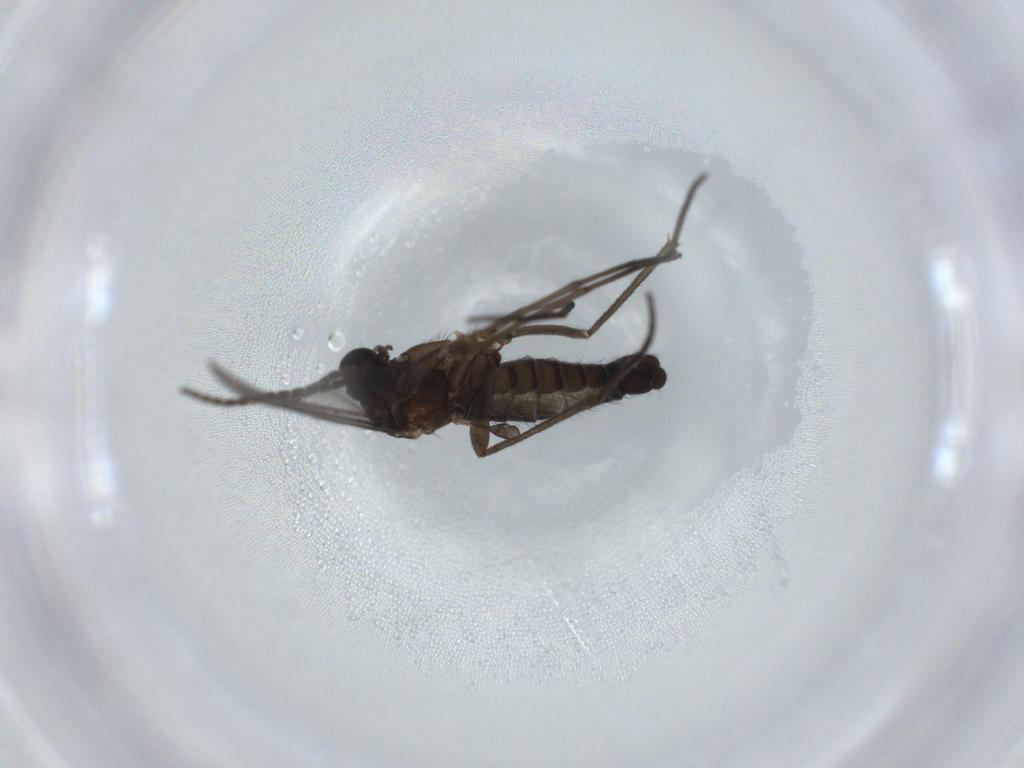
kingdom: Animalia
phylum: Arthropoda
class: Insecta
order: Diptera
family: Sciaridae
